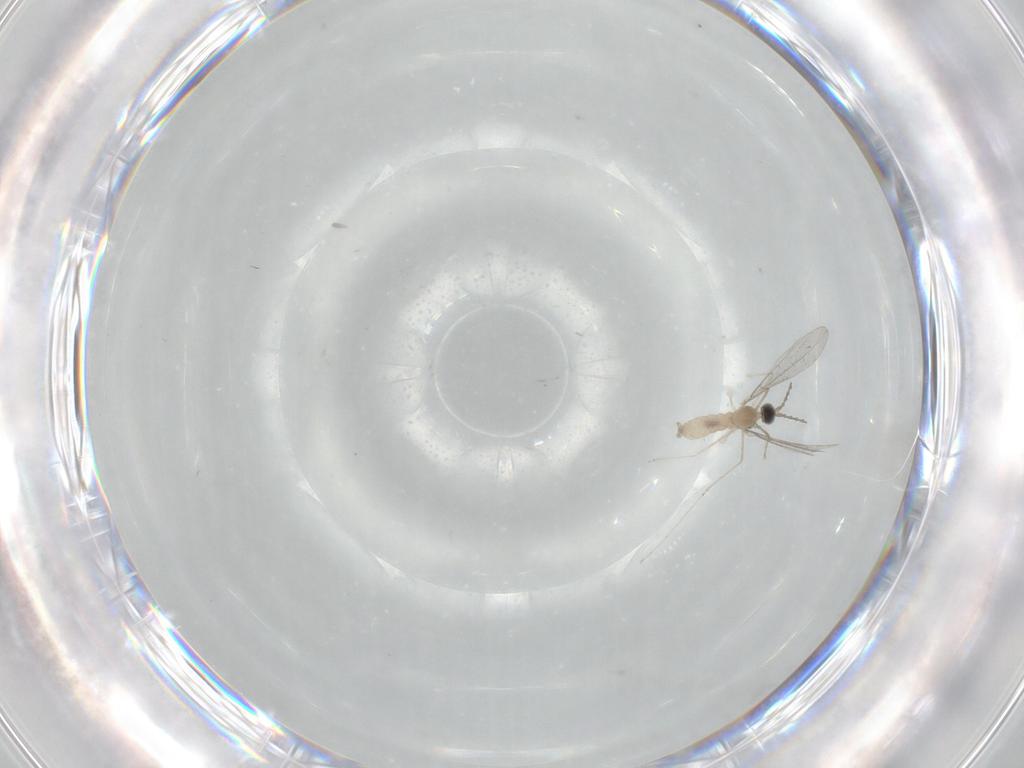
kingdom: Animalia
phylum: Arthropoda
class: Insecta
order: Diptera
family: Cecidomyiidae
